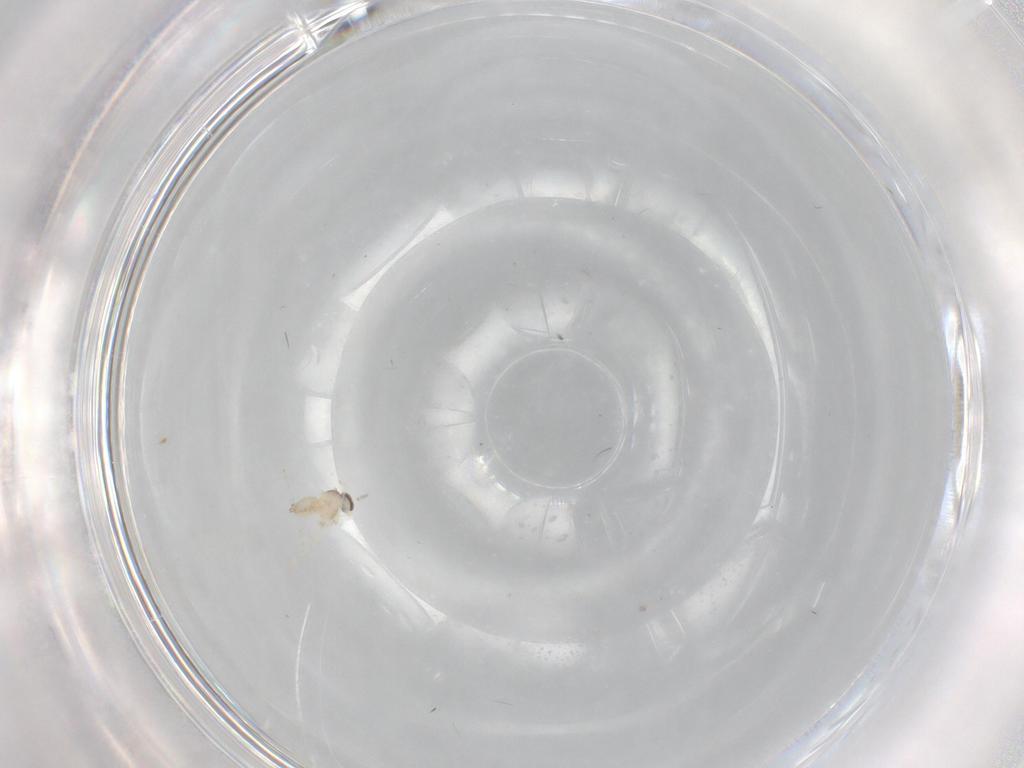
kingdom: Animalia
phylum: Arthropoda
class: Insecta
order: Diptera
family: Cecidomyiidae
